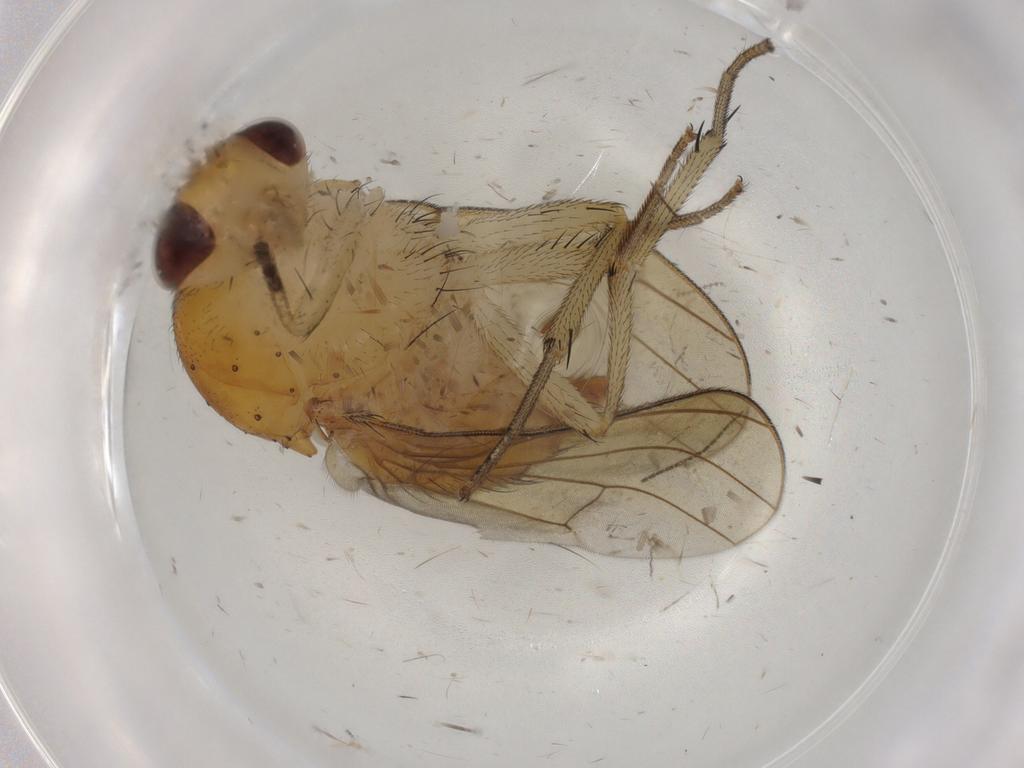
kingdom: Animalia
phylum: Arthropoda
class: Insecta
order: Diptera
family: Cecidomyiidae
